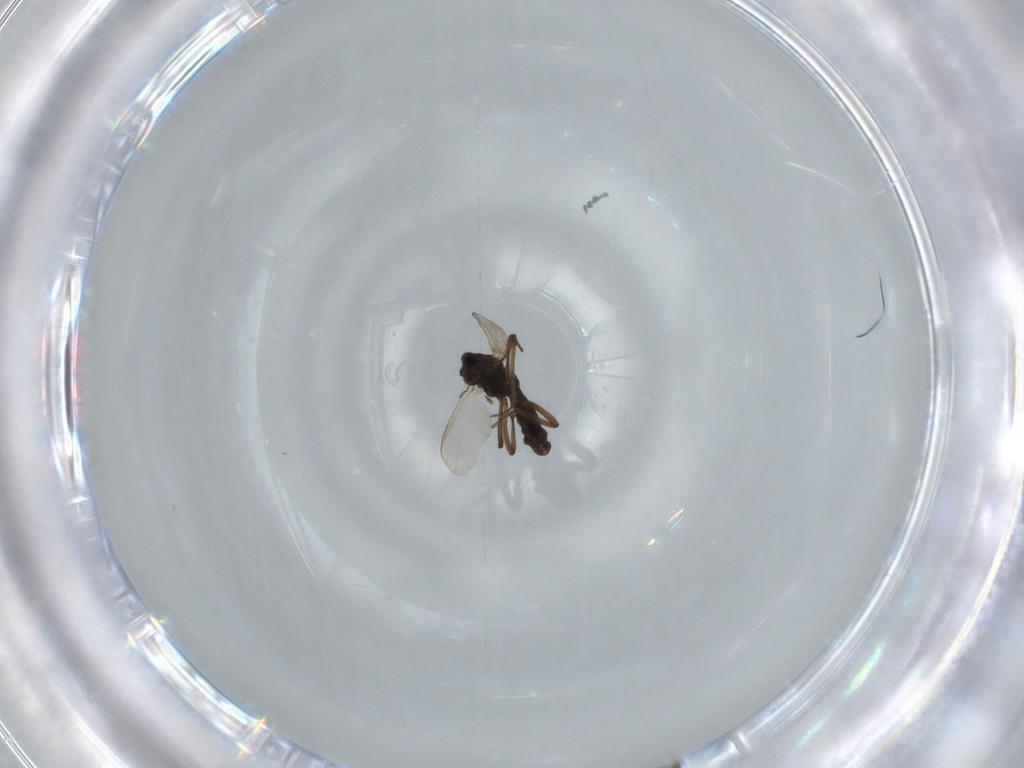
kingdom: Animalia
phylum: Arthropoda
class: Insecta
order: Diptera
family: Chironomidae
